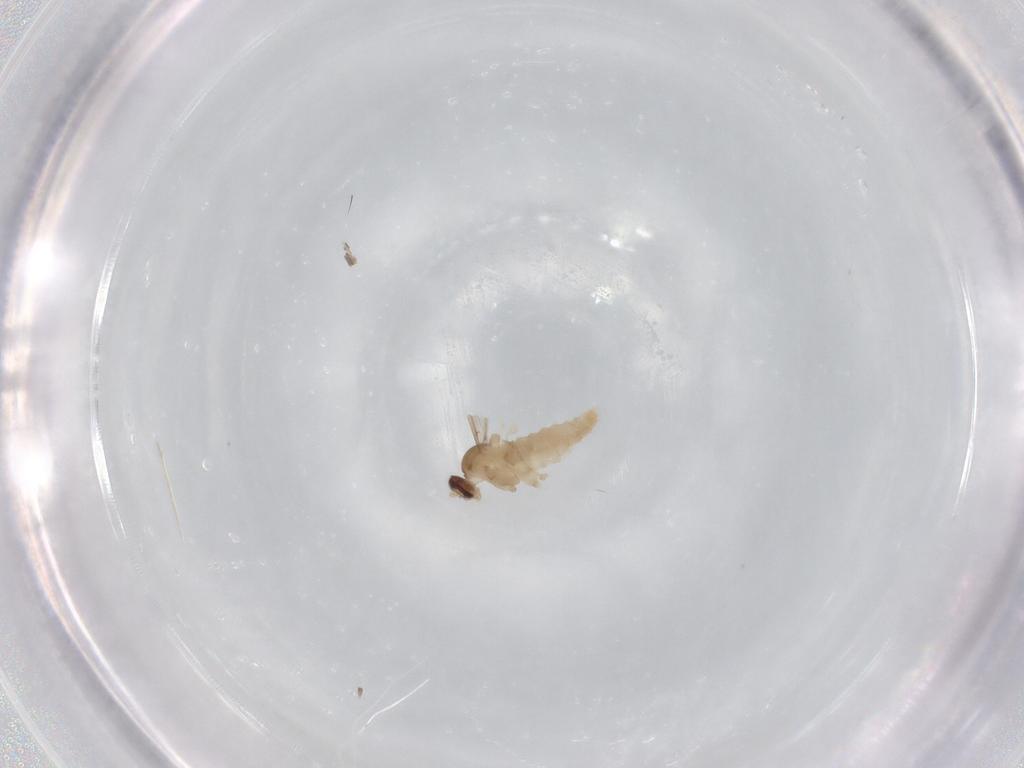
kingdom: Animalia
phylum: Arthropoda
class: Insecta
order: Diptera
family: Cecidomyiidae
